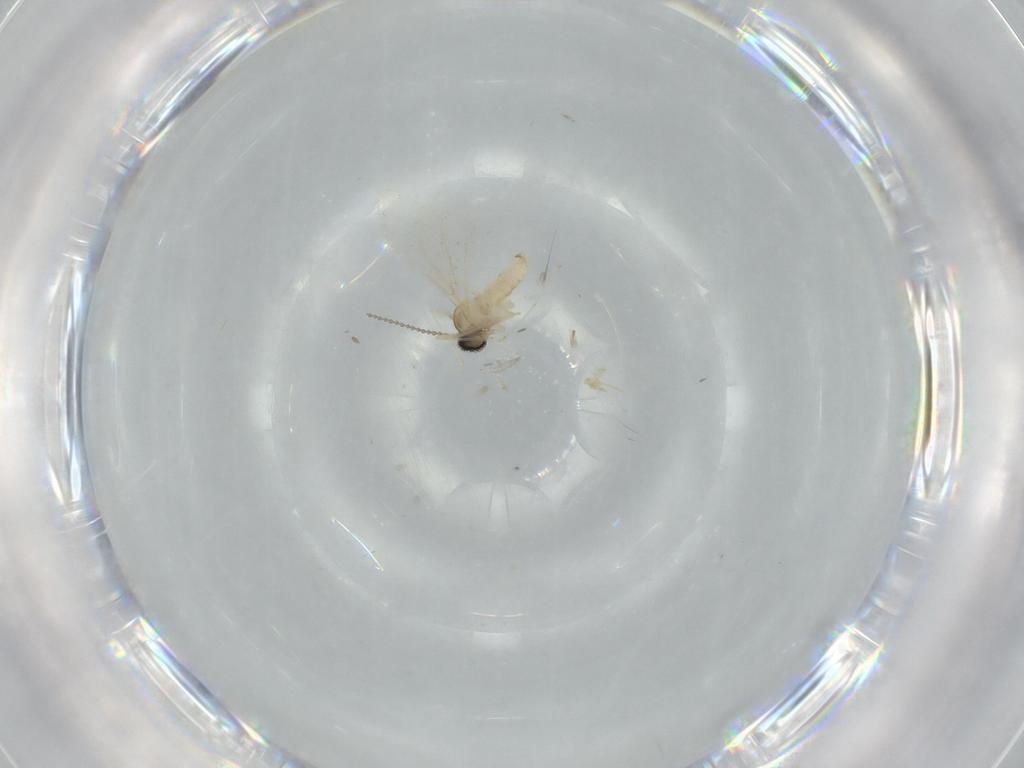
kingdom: Animalia
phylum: Arthropoda
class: Insecta
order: Diptera
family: Cecidomyiidae
